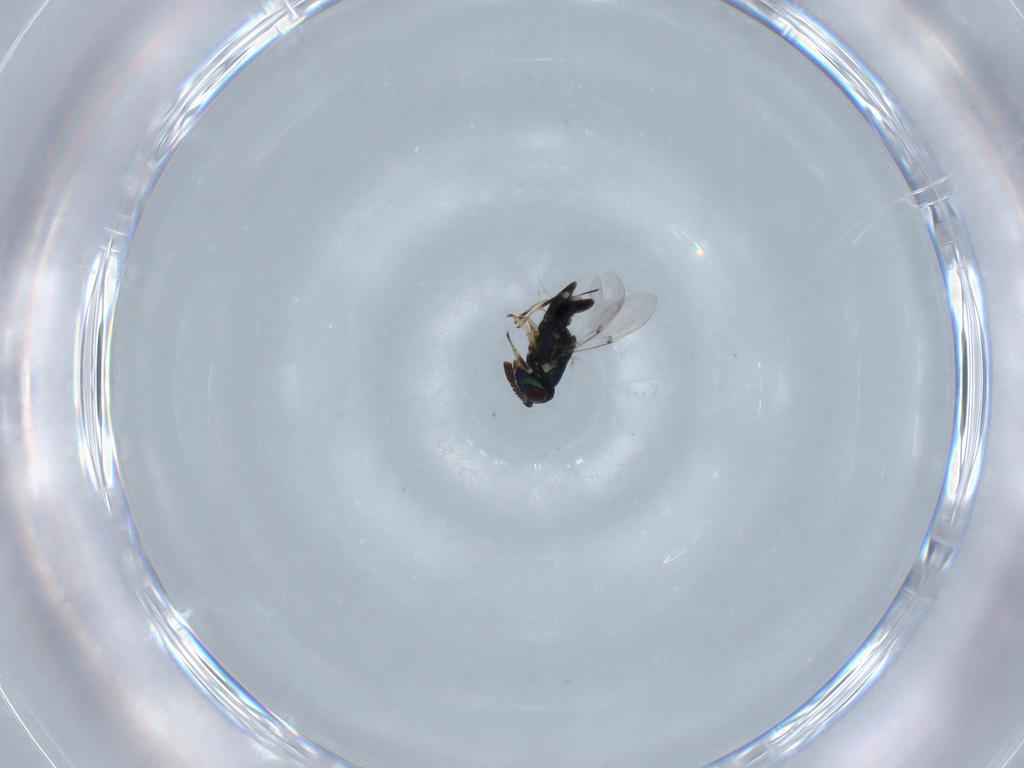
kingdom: Animalia
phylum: Arthropoda
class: Insecta
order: Hymenoptera
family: Encyrtidae
